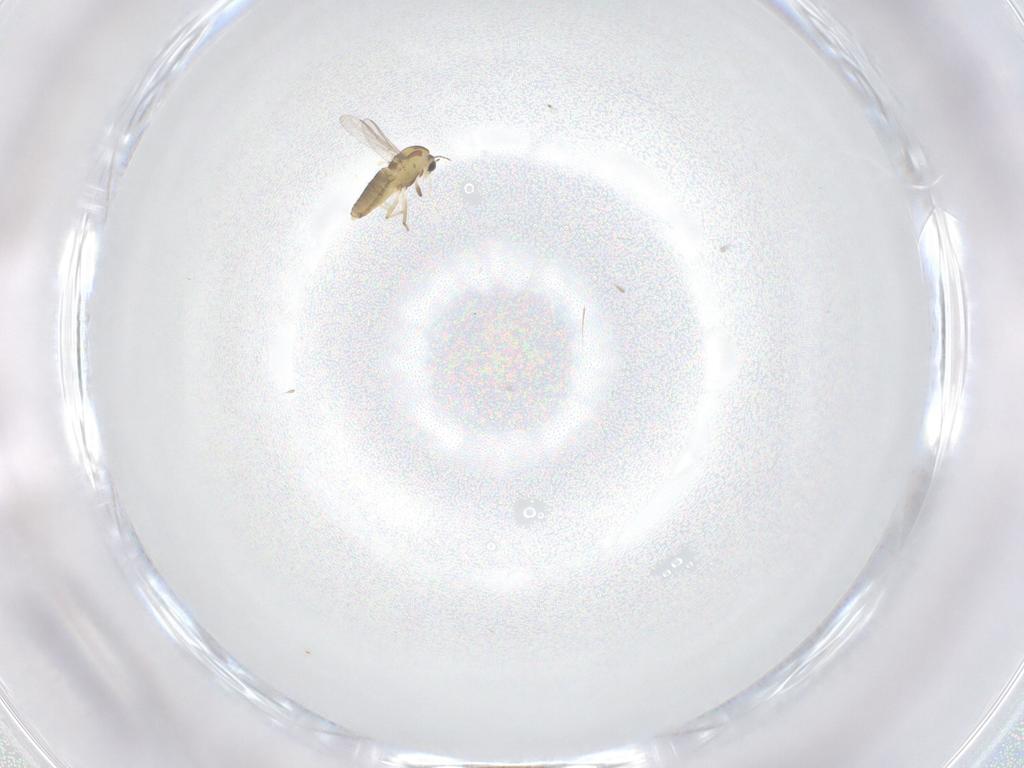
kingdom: Animalia
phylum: Arthropoda
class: Insecta
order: Diptera
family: Chironomidae
